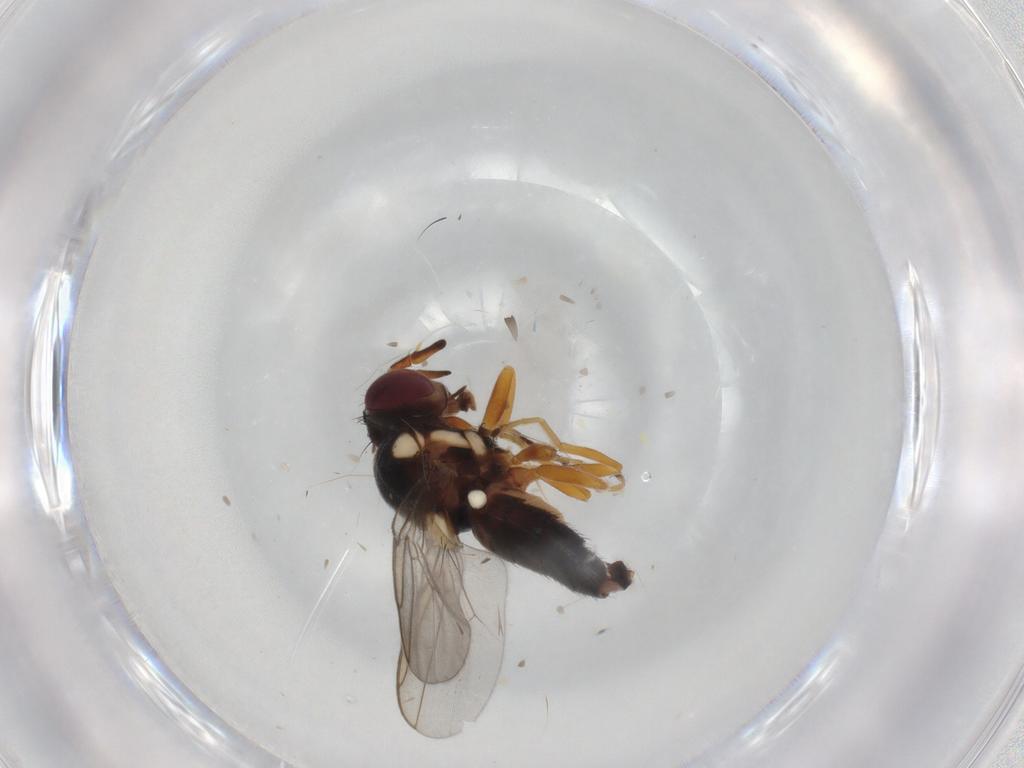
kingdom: Animalia
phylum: Arthropoda
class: Insecta
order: Diptera
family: Chloropidae
